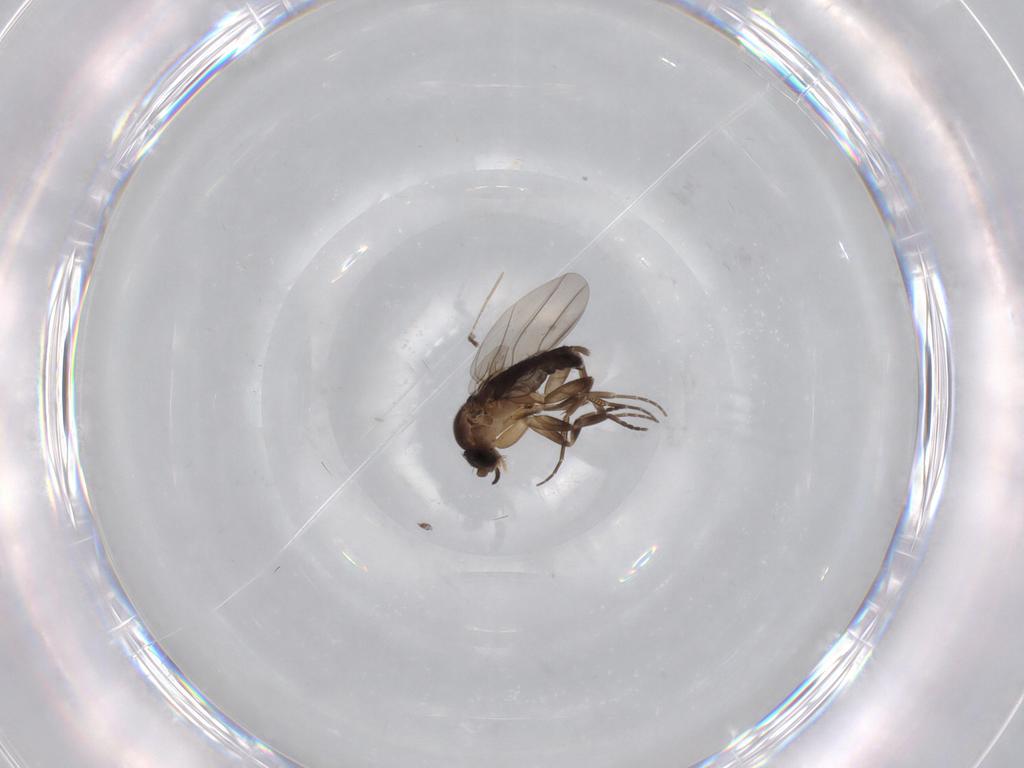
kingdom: Animalia
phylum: Arthropoda
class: Insecta
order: Diptera
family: Phoridae
